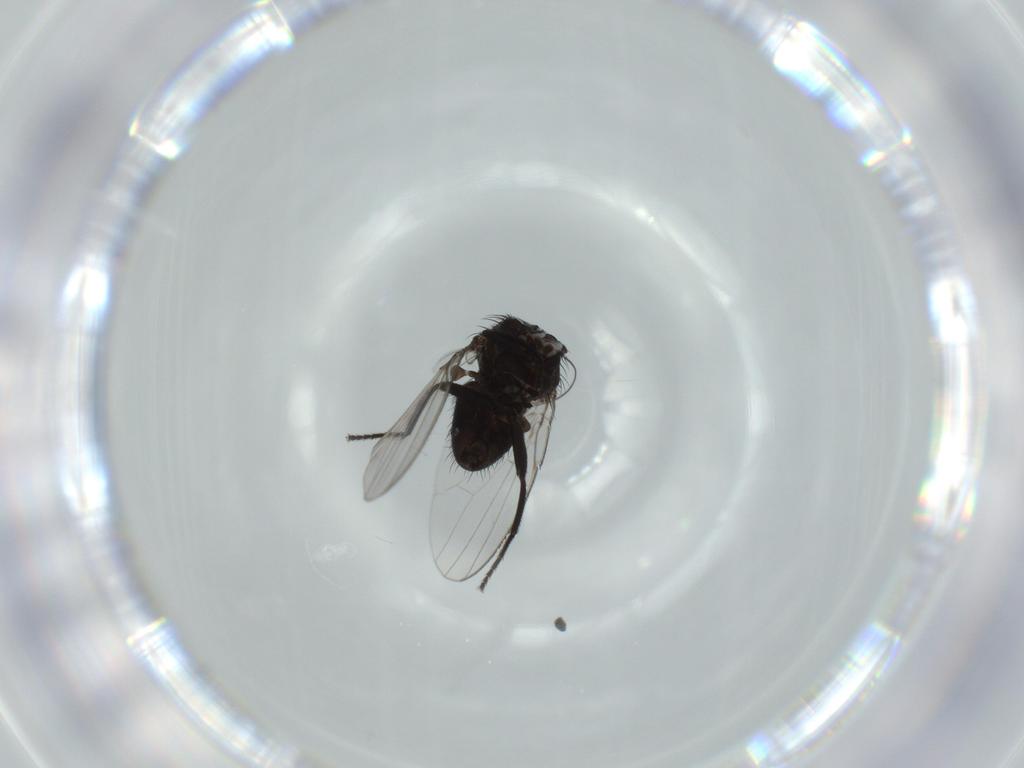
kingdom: Animalia
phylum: Arthropoda
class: Insecta
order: Diptera
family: Milichiidae
